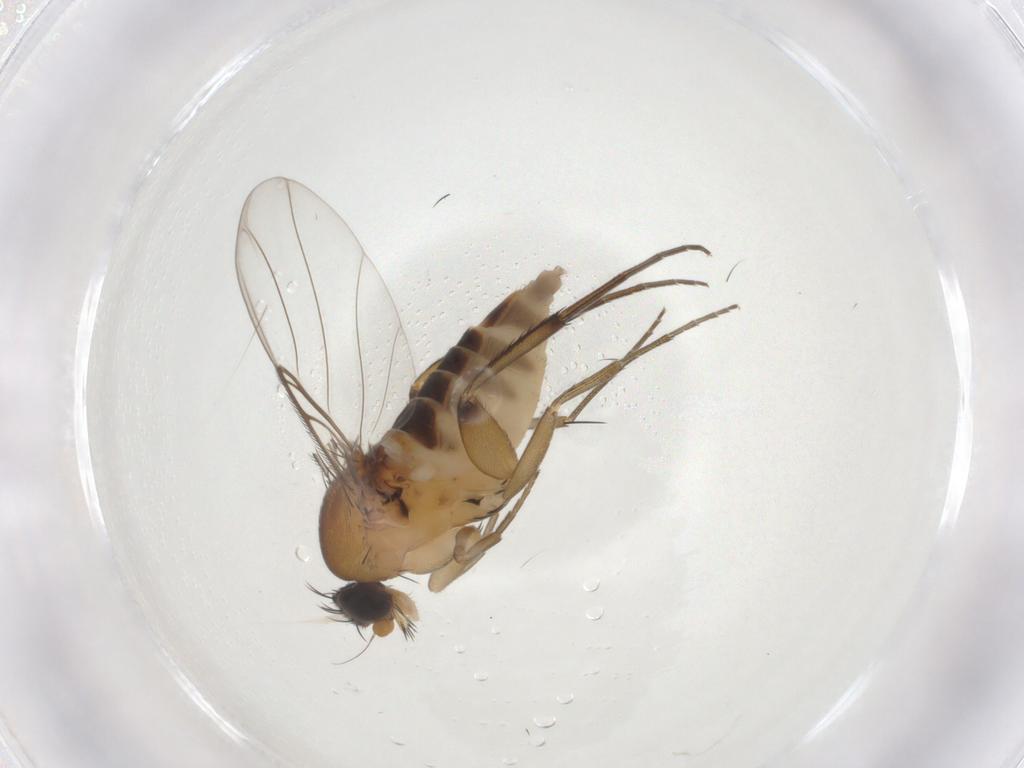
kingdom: Animalia
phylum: Arthropoda
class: Insecta
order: Diptera
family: Phoridae
